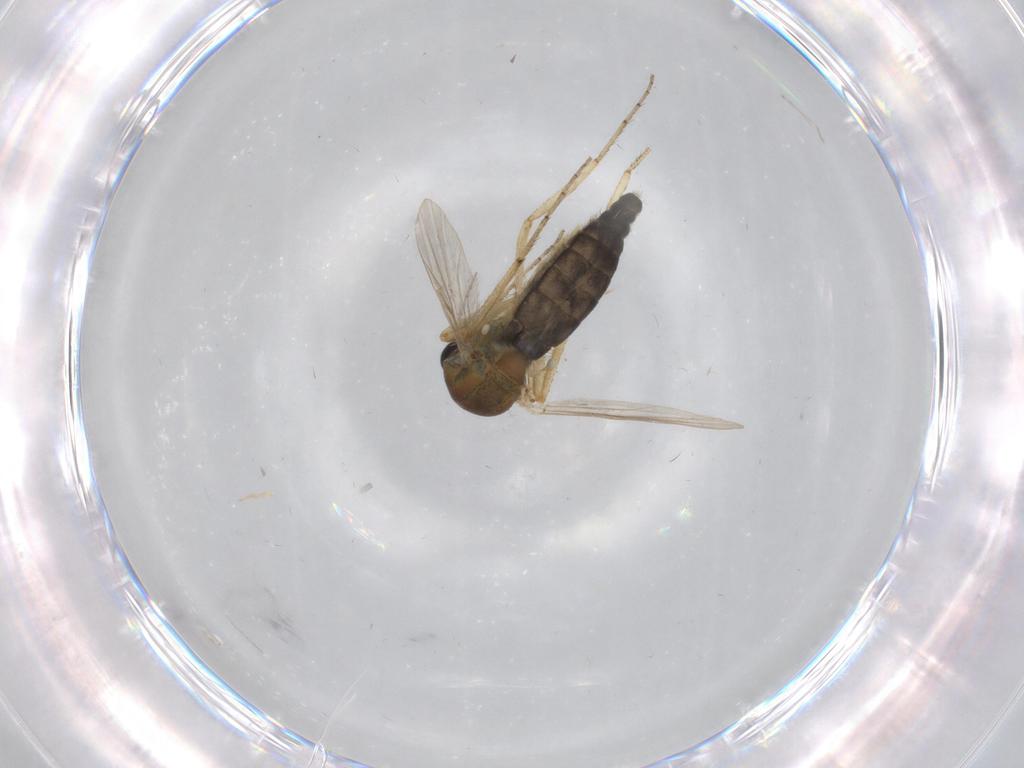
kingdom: Animalia
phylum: Arthropoda
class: Insecta
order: Diptera
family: Ceratopogonidae
